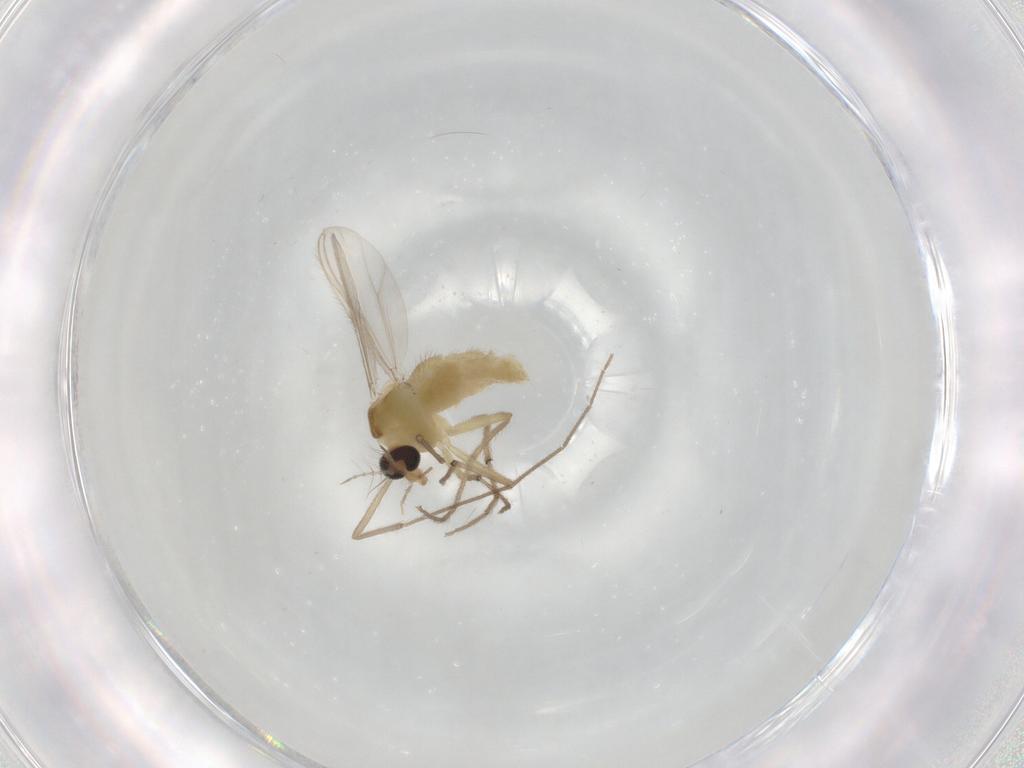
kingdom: Animalia
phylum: Arthropoda
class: Insecta
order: Diptera
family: Chironomidae
